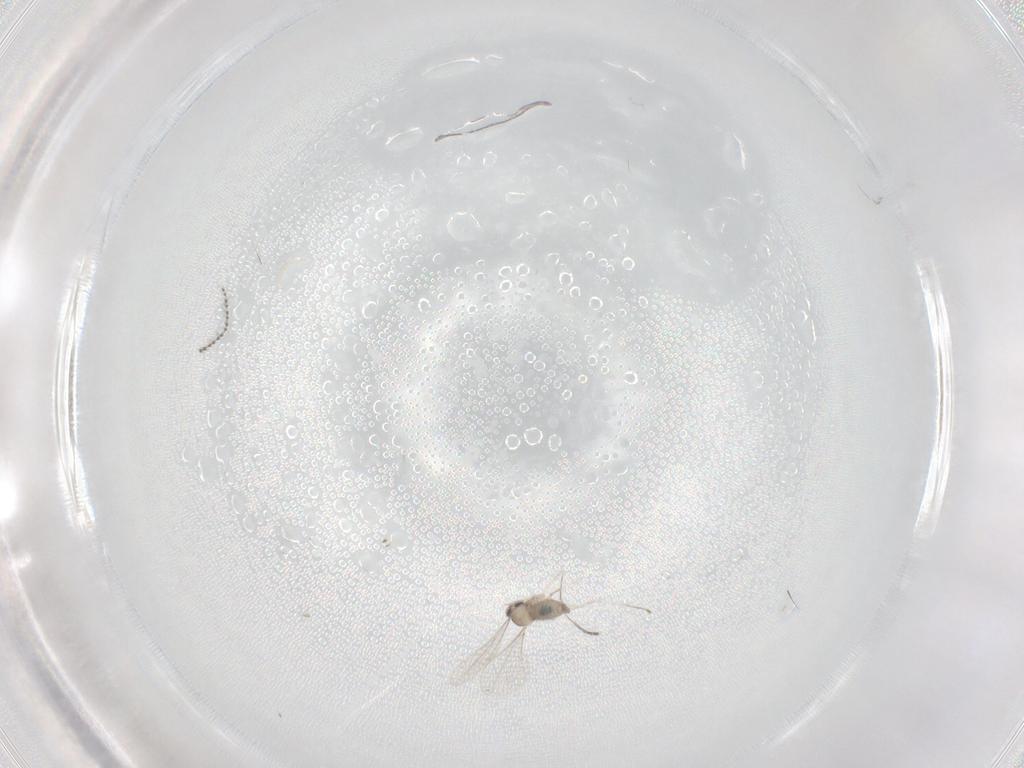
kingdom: Animalia
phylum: Arthropoda
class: Insecta
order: Diptera
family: Cecidomyiidae
